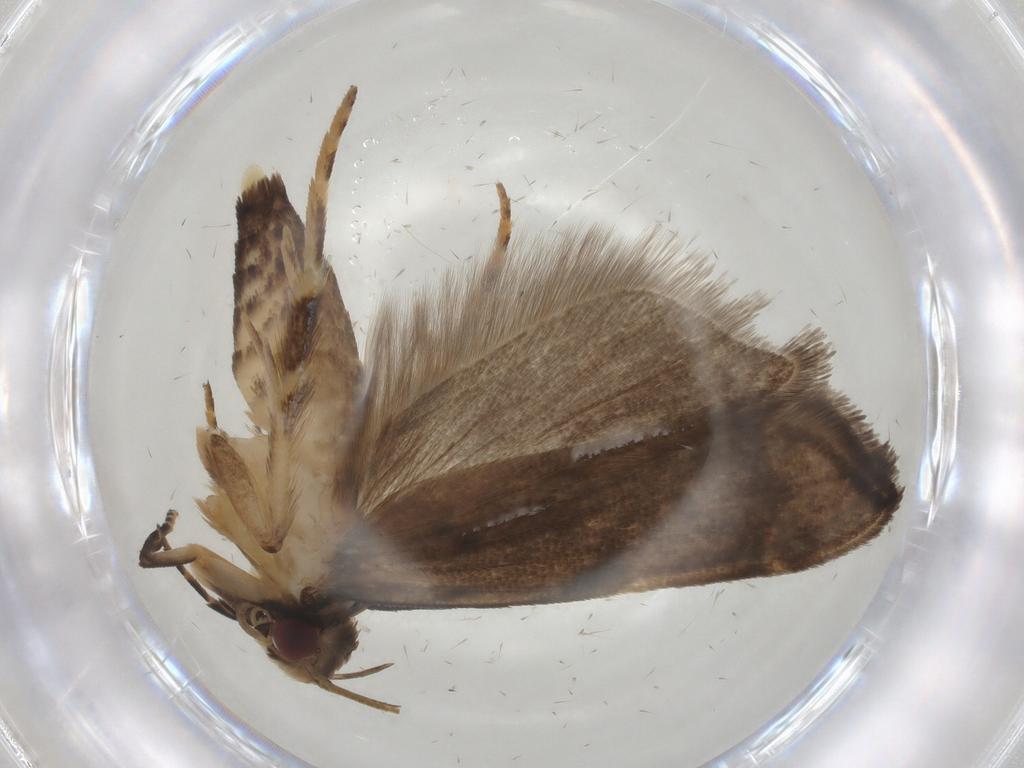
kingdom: Animalia
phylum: Arthropoda
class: Insecta
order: Lepidoptera
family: Gelechiidae
